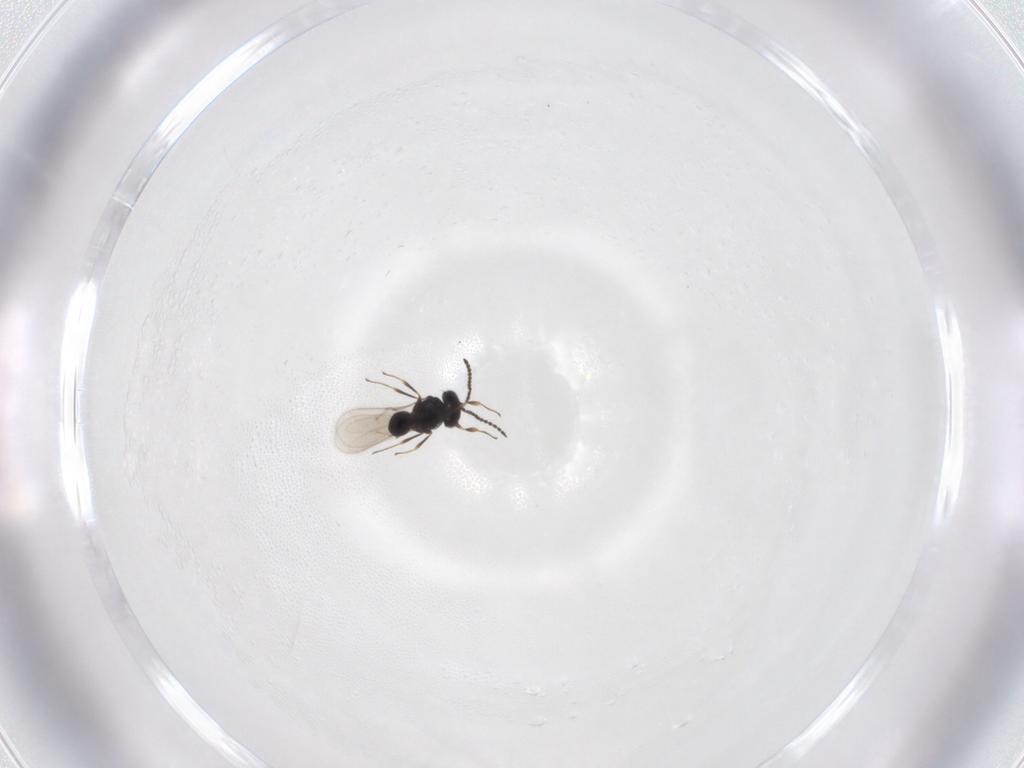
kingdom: Animalia
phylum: Arthropoda
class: Insecta
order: Hymenoptera
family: Scelionidae
